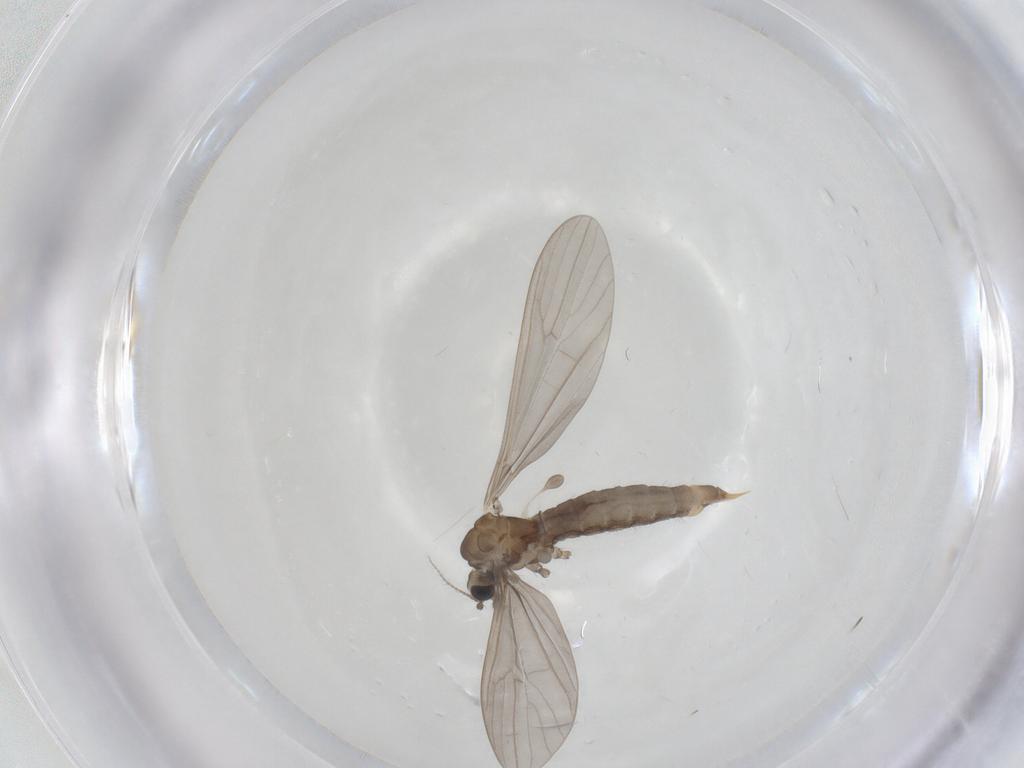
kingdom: Animalia
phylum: Arthropoda
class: Insecta
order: Diptera
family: Limoniidae
